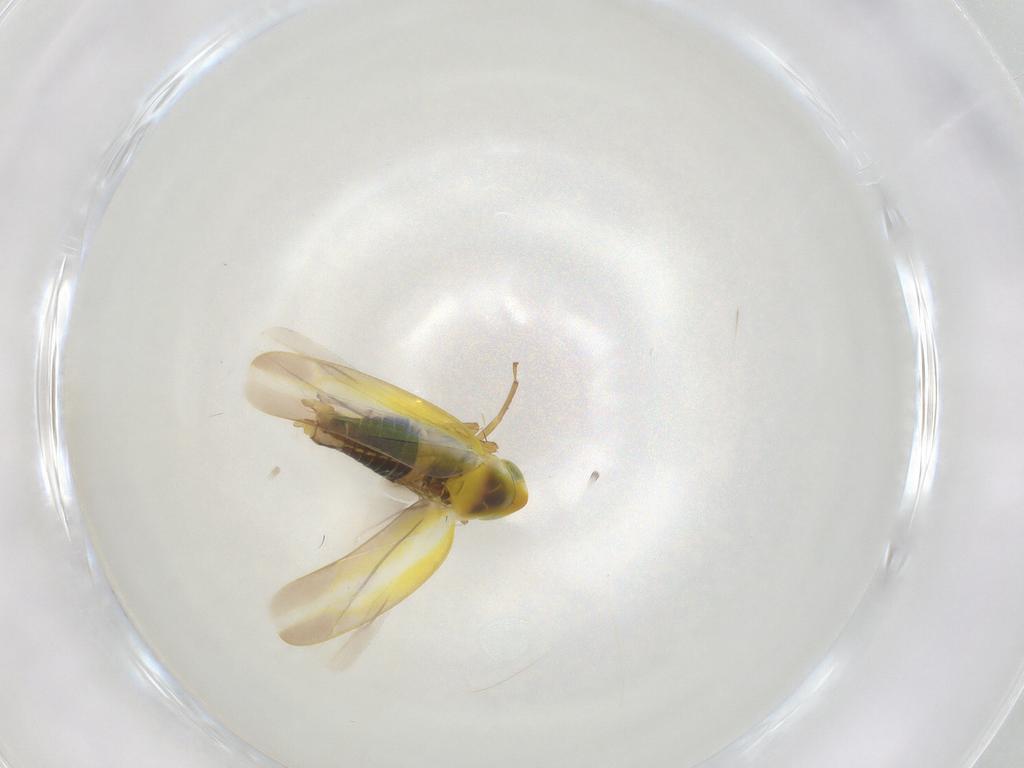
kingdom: Animalia
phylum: Arthropoda
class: Insecta
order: Hemiptera
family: Cicadellidae
